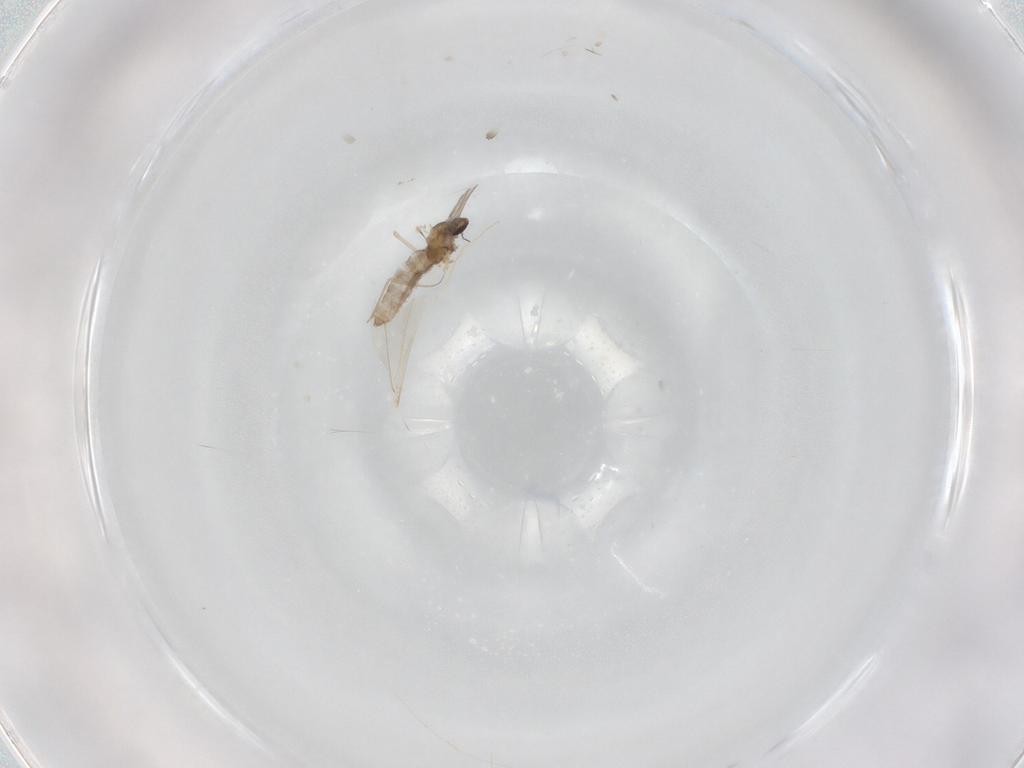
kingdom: Animalia
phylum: Arthropoda
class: Insecta
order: Diptera
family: Cecidomyiidae
